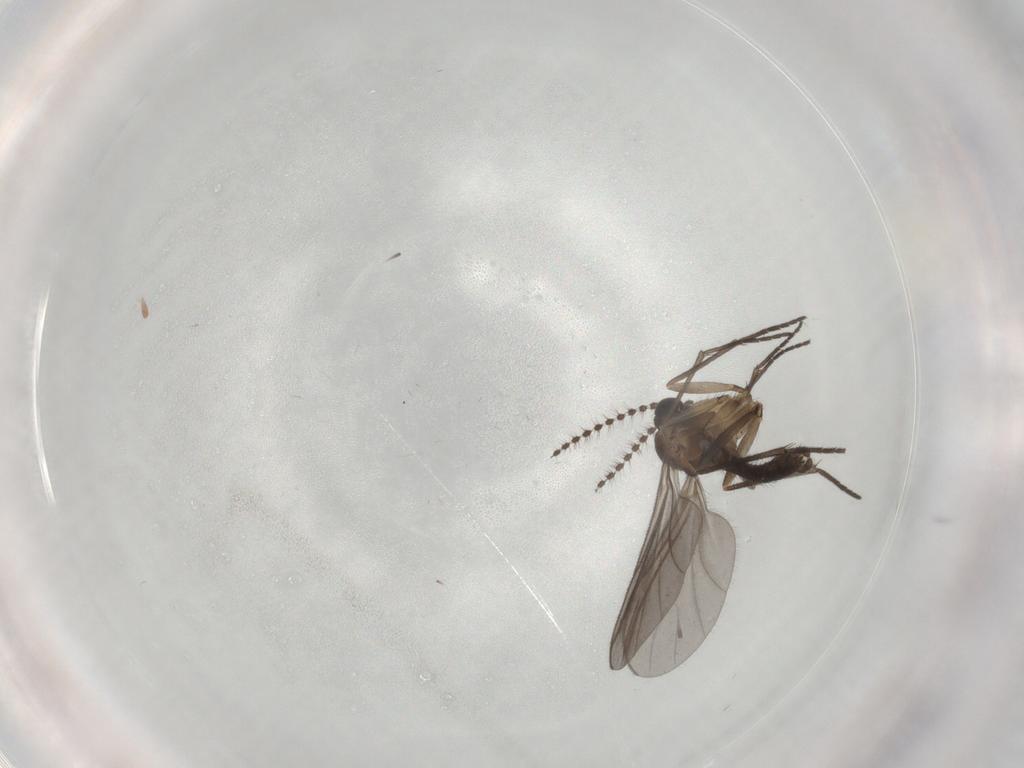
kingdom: Animalia
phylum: Arthropoda
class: Insecta
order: Diptera
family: Sciaridae
